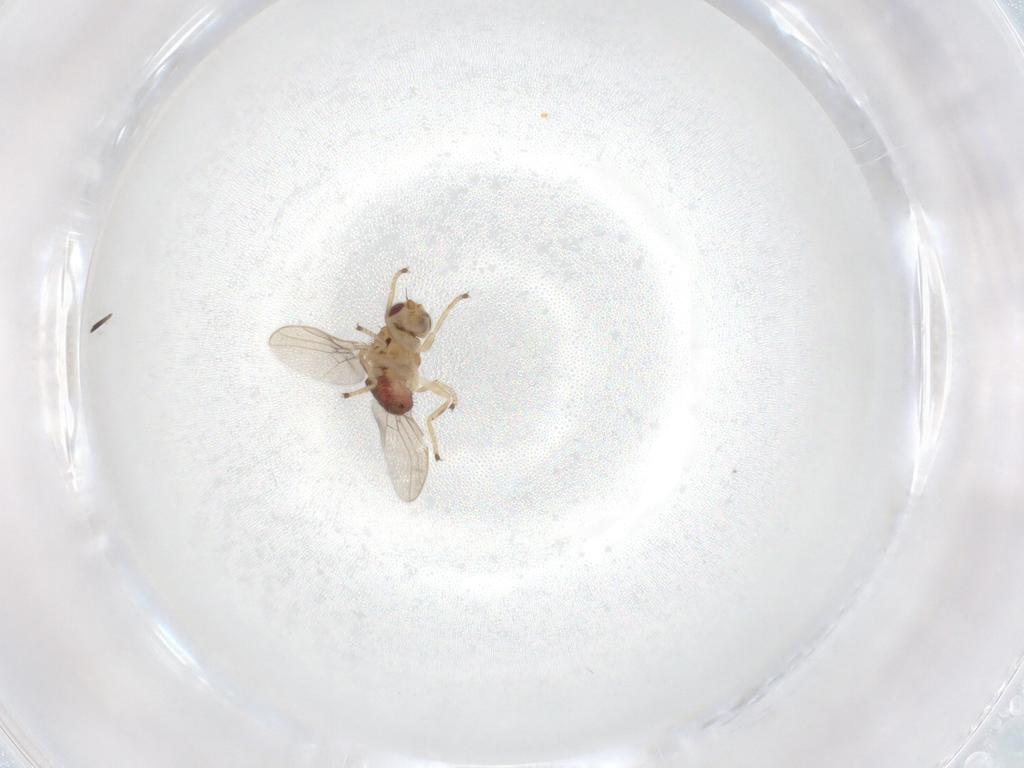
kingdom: Animalia
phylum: Arthropoda
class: Insecta
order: Diptera
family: Chloropidae
